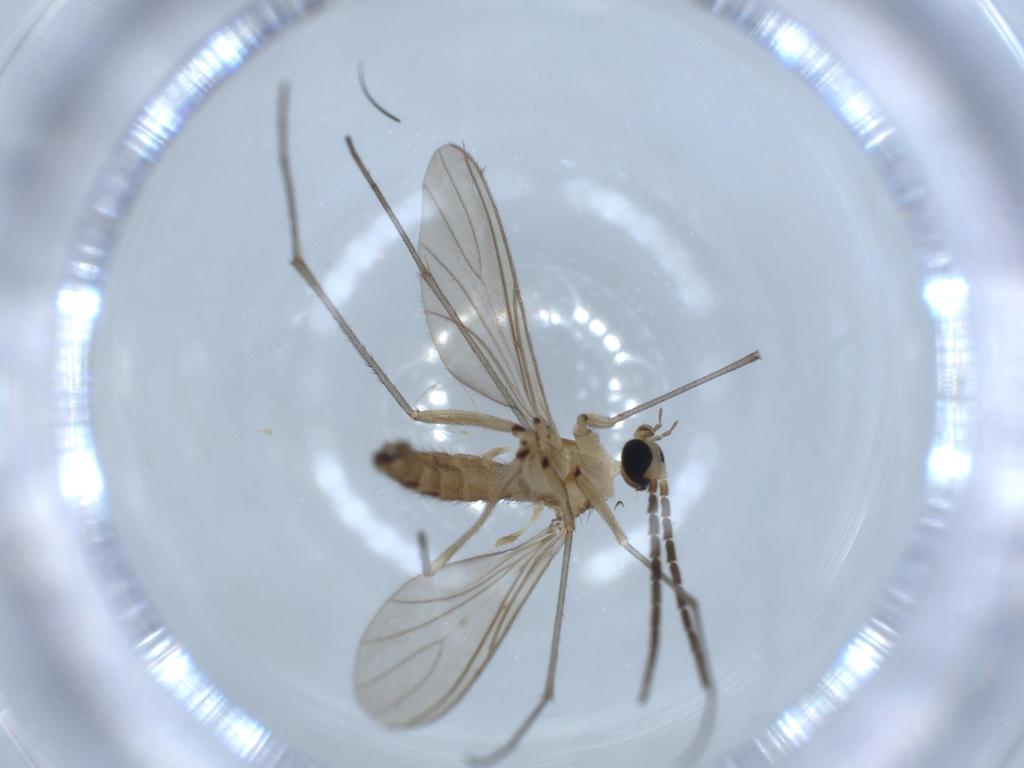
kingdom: Animalia
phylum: Arthropoda
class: Insecta
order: Diptera
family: Sciaridae
